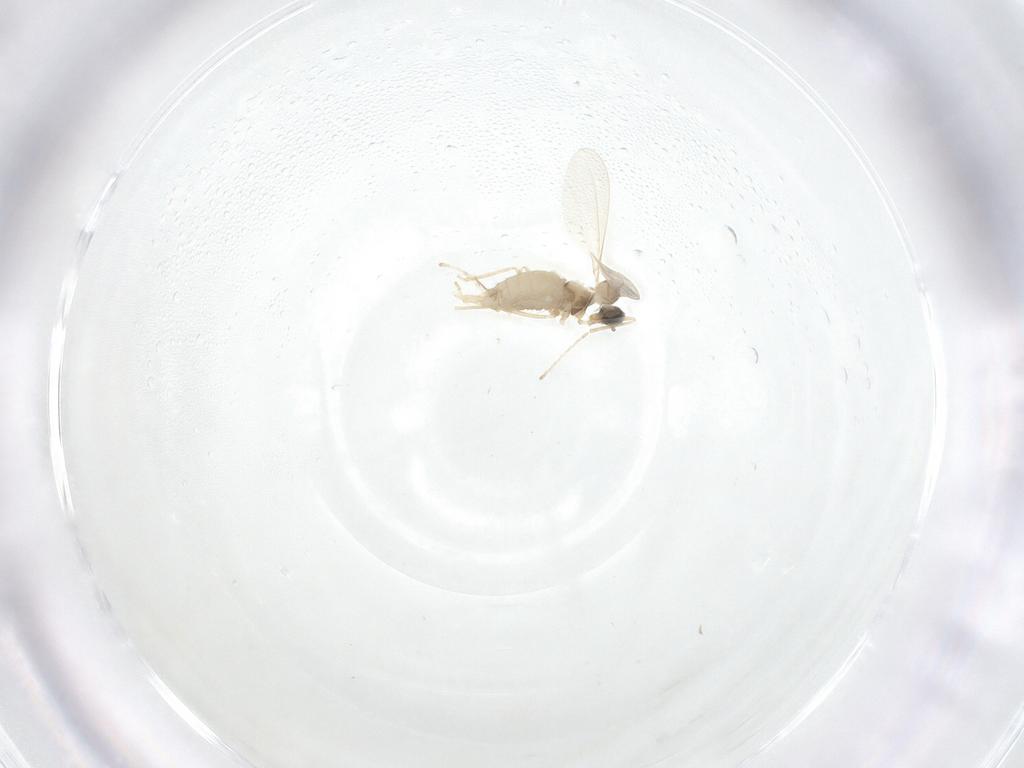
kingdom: Animalia
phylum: Arthropoda
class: Insecta
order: Diptera
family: Cecidomyiidae
